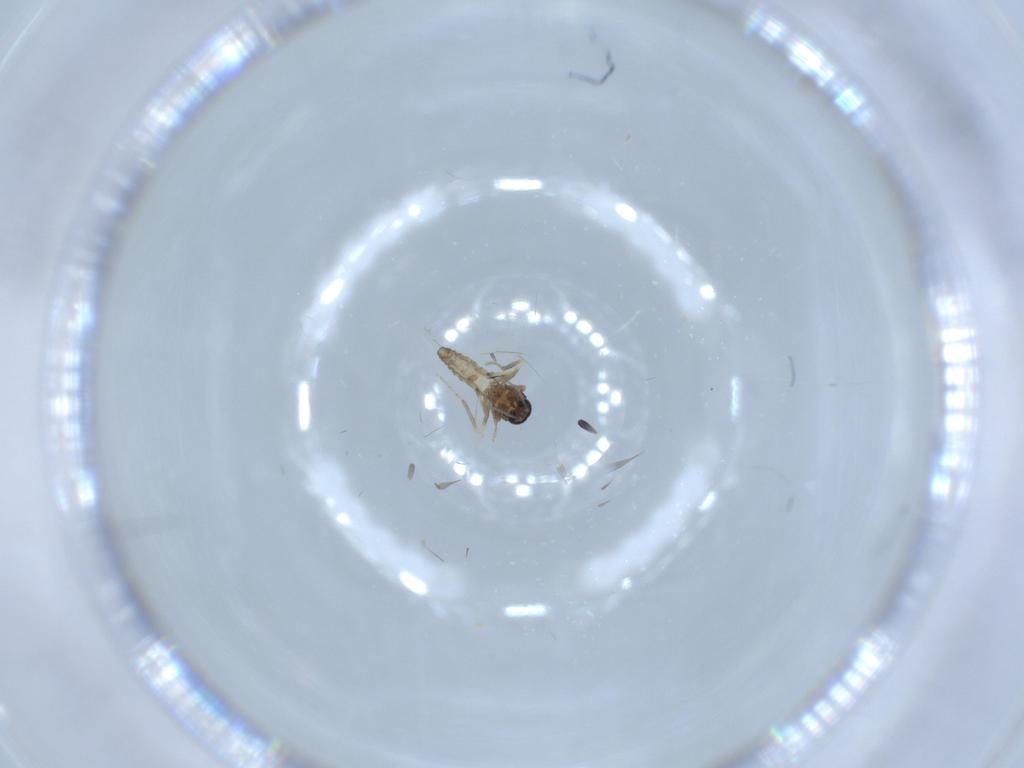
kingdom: Animalia
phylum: Arthropoda
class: Insecta
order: Diptera
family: Ceratopogonidae
